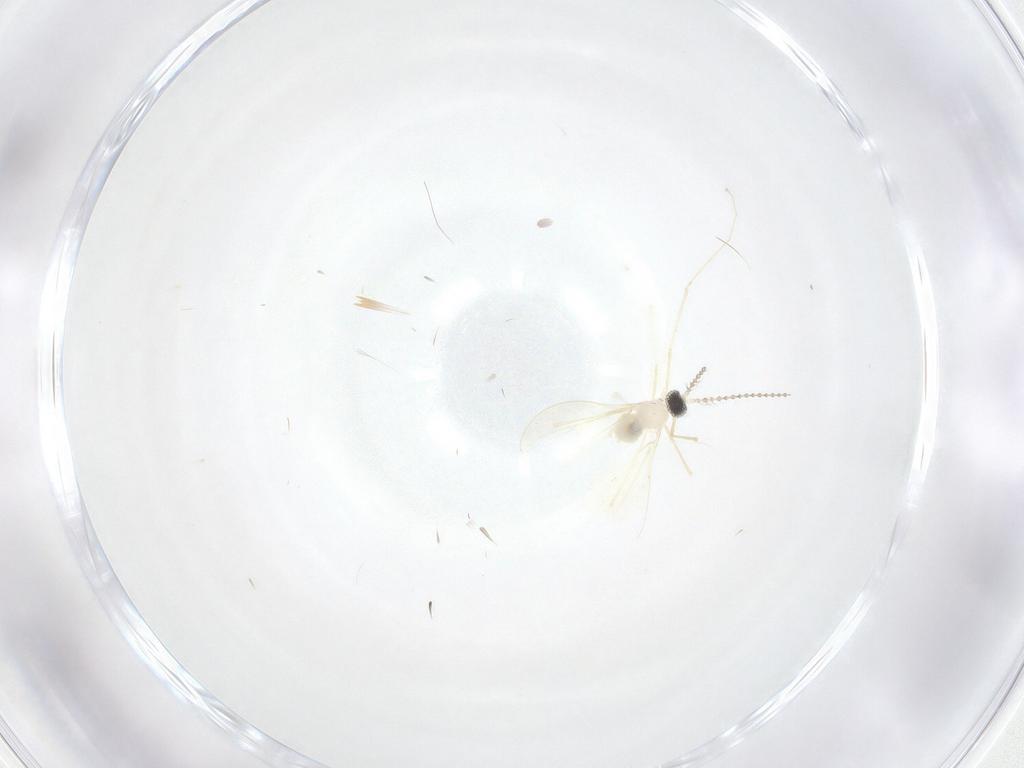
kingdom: Animalia
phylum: Arthropoda
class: Insecta
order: Diptera
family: Cecidomyiidae
